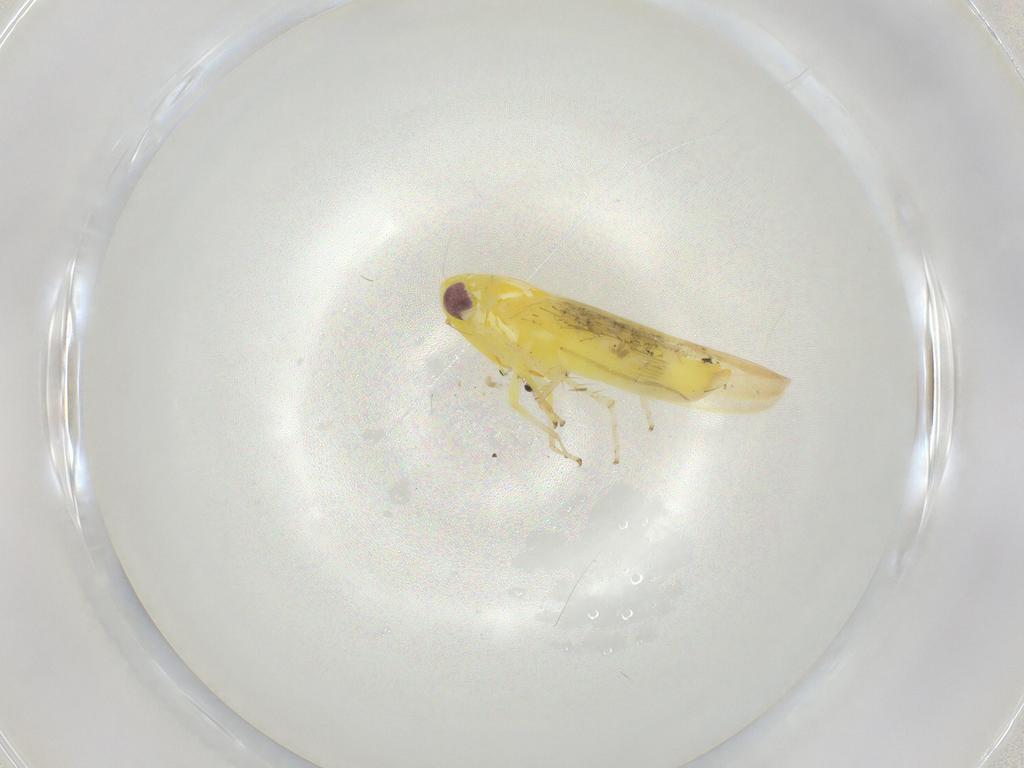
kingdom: Animalia
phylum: Arthropoda
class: Insecta
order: Hemiptera
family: Cicadellidae
